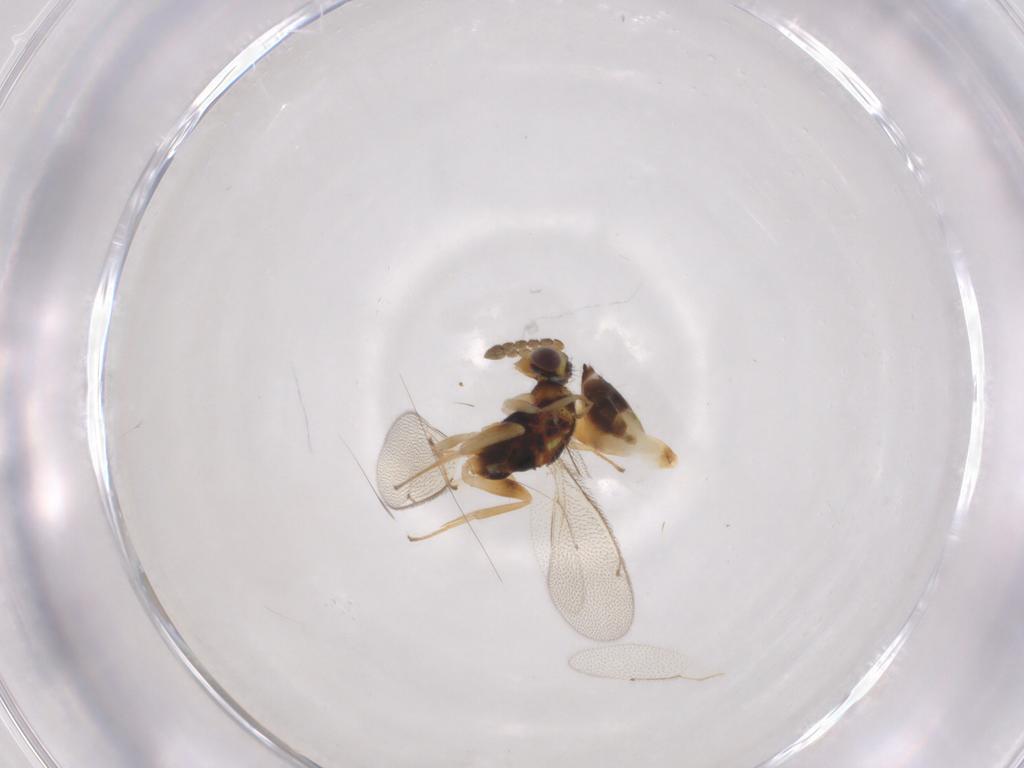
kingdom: Animalia
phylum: Arthropoda
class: Insecta
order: Hymenoptera
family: Eulophidae
